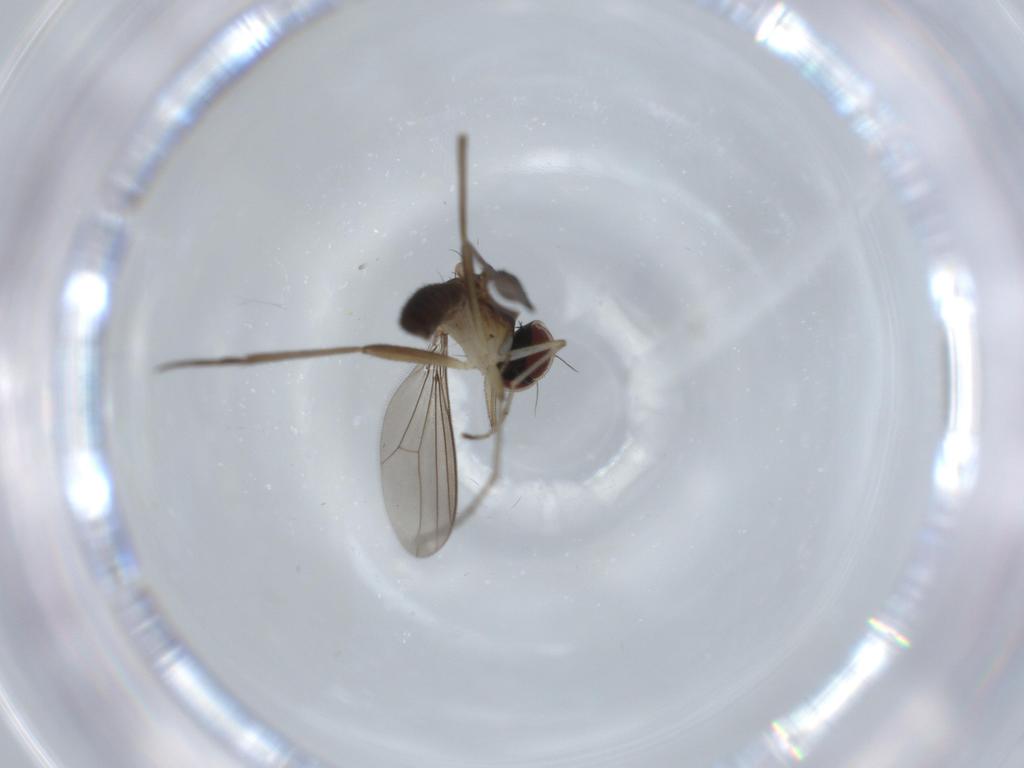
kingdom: Animalia
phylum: Arthropoda
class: Insecta
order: Diptera
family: Dolichopodidae
